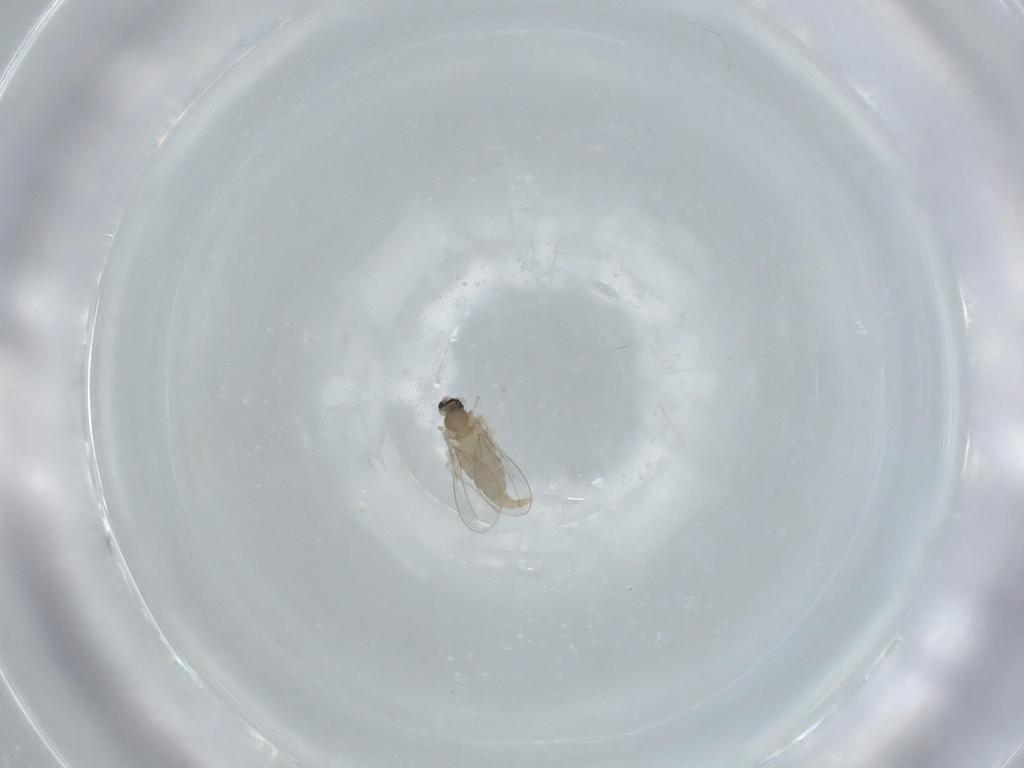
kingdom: Animalia
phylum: Arthropoda
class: Insecta
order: Diptera
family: Cecidomyiidae
